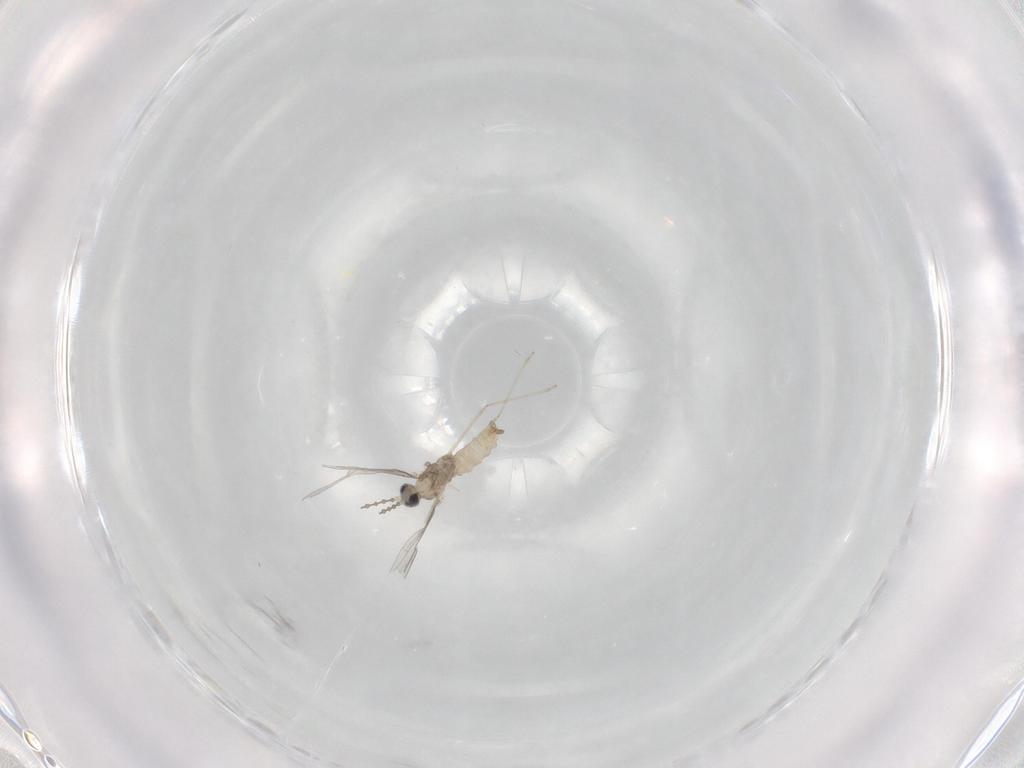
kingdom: Animalia
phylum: Arthropoda
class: Insecta
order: Diptera
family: Cecidomyiidae
